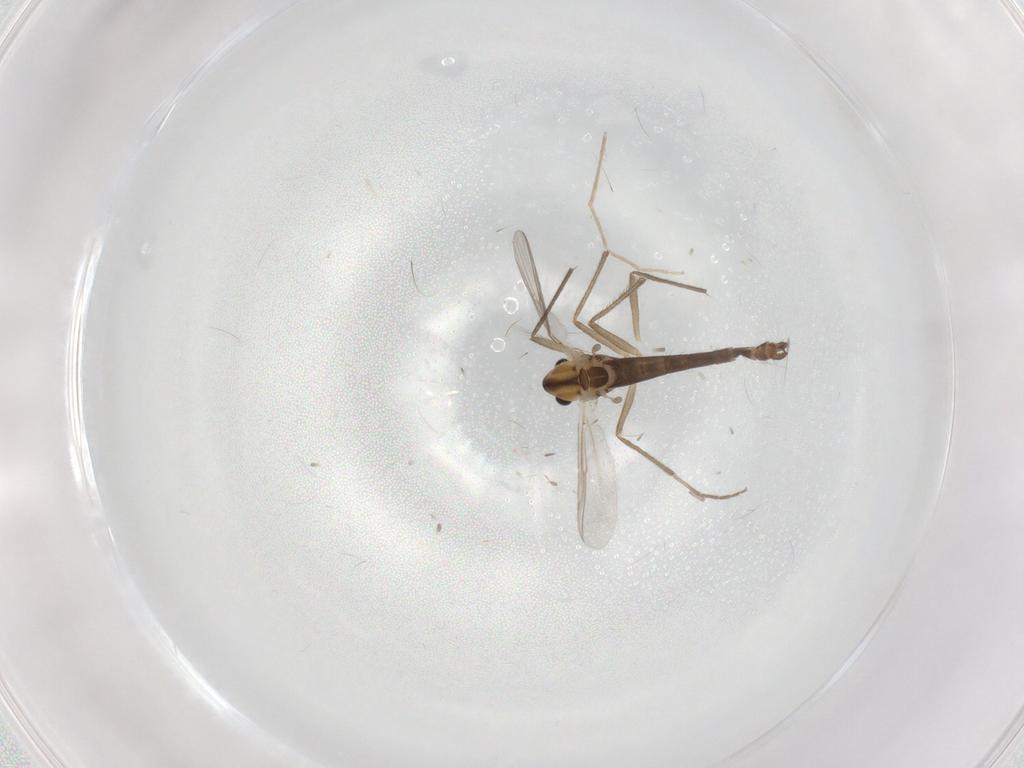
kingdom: Animalia
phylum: Arthropoda
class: Insecta
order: Diptera
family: Chironomidae
